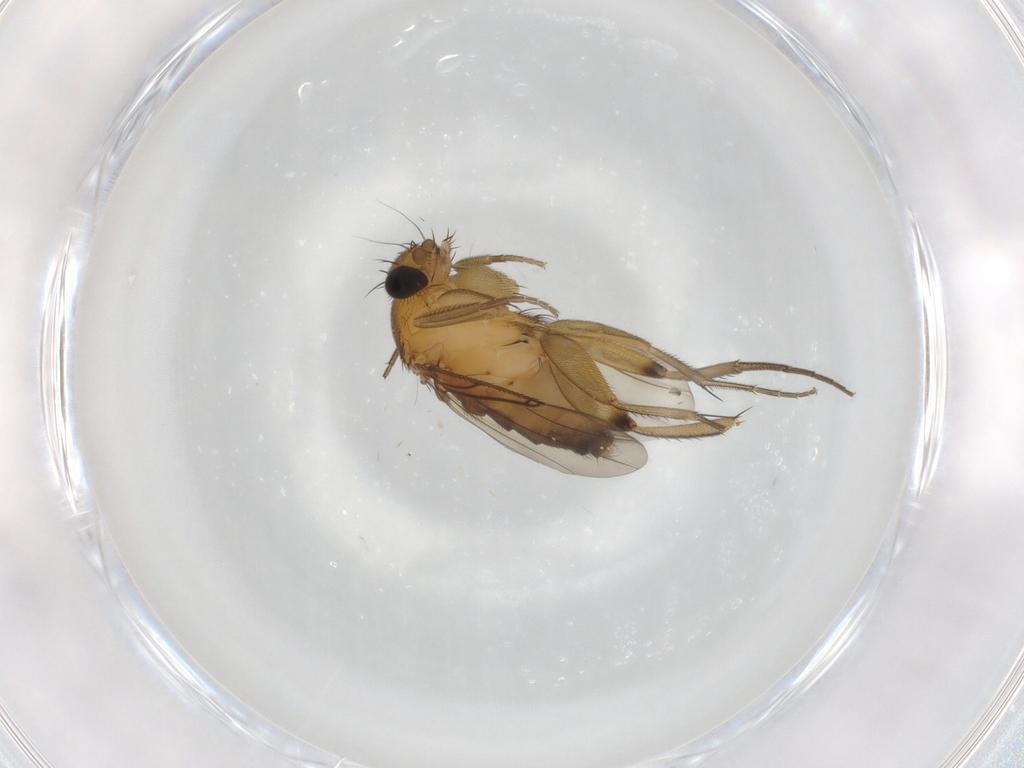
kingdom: Animalia
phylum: Arthropoda
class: Insecta
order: Diptera
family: Phoridae
